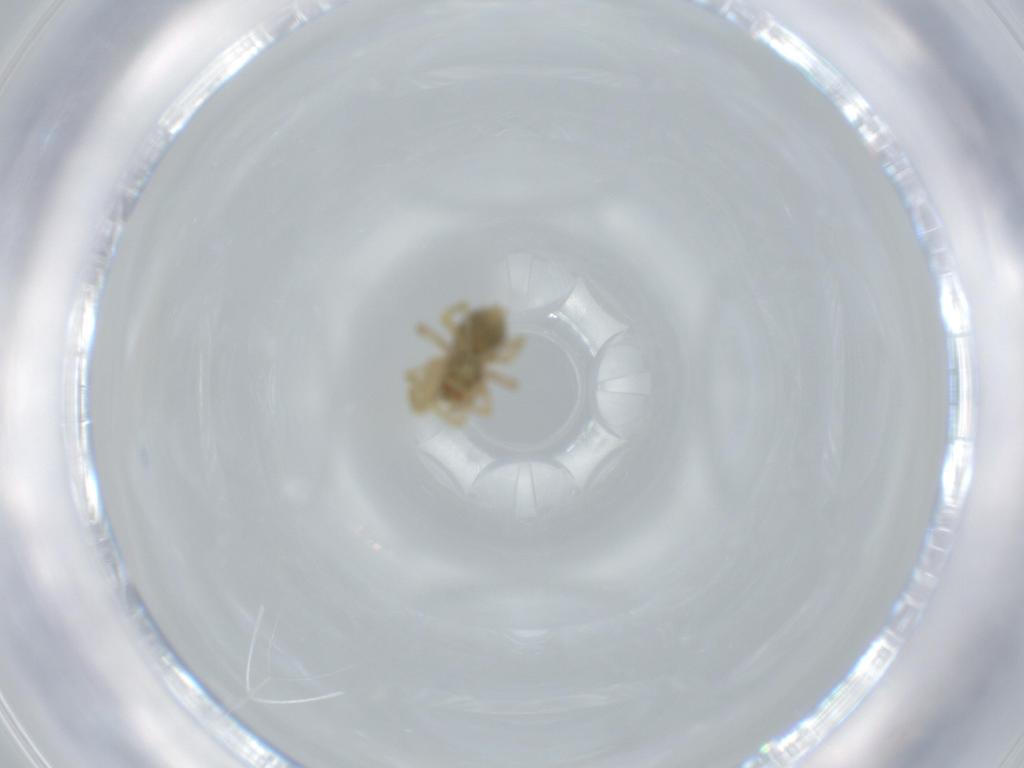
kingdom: Animalia
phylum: Arthropoda
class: Arachnida
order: Araneae
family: Linyphiidae
